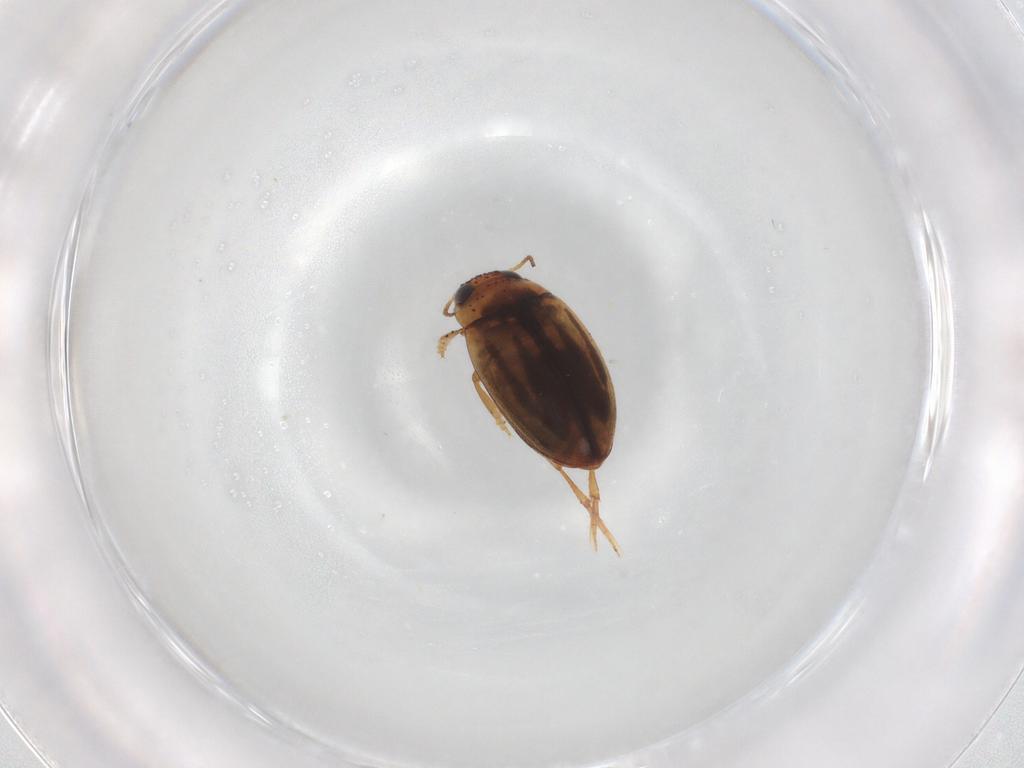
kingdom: Animalia
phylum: Arthropoda
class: Insecta
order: Coleoptera
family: Dytiscidae
